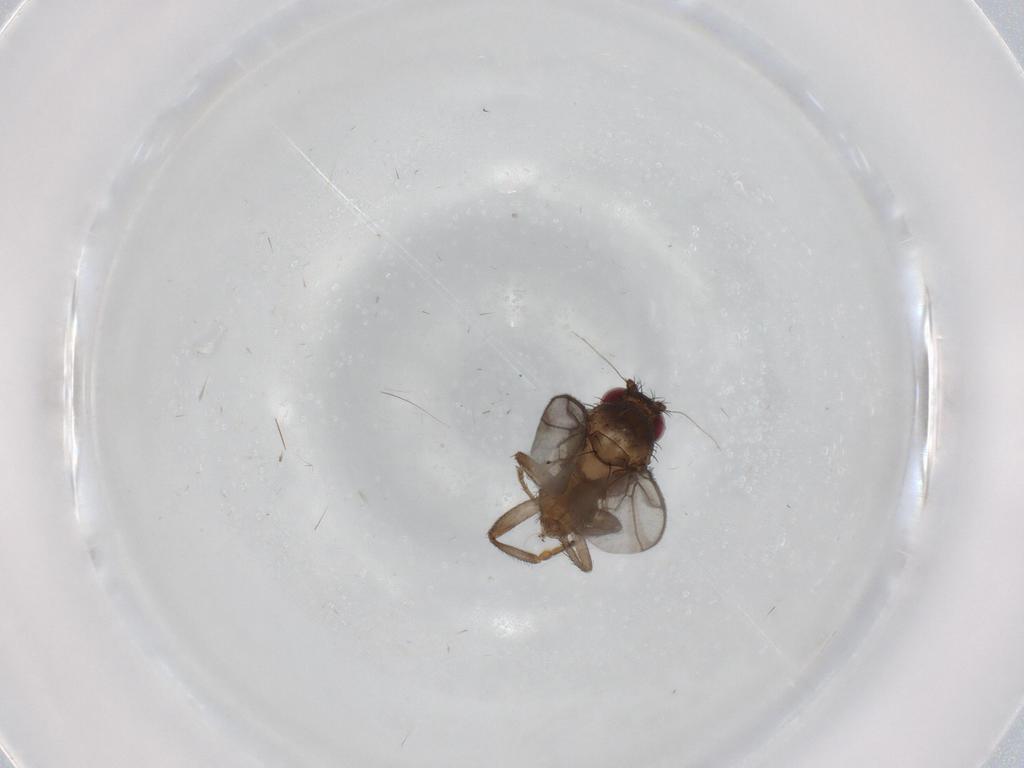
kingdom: Animalia
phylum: Arthropoda
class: Insecta
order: Diptera
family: Sciaridae
